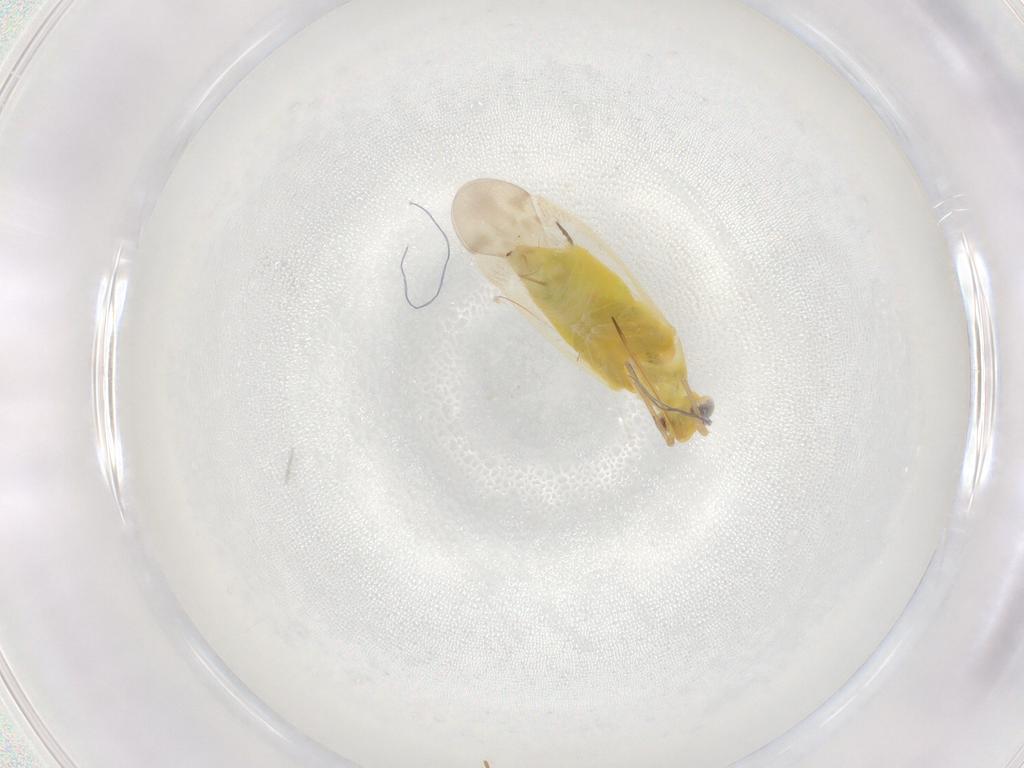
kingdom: Animalia
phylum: Arthropoda
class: Insecta
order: Hemiptera
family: Miridae
